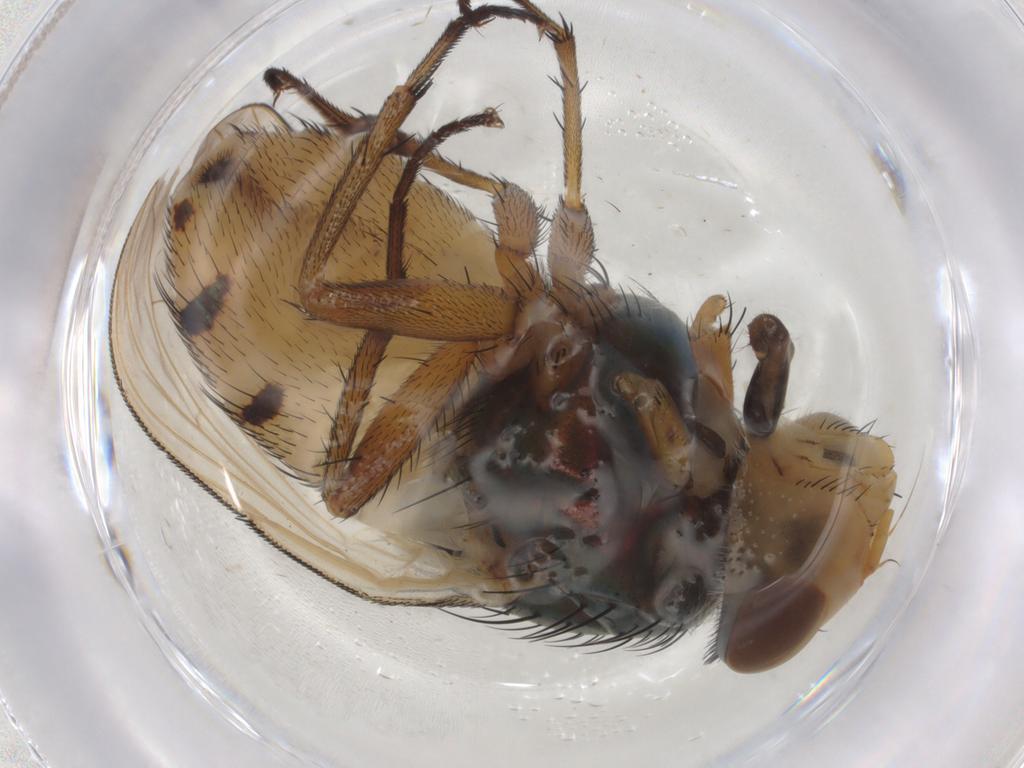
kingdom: Animalia
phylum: Arthropoda
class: Insecta
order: Diptera
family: Calliphoridae
